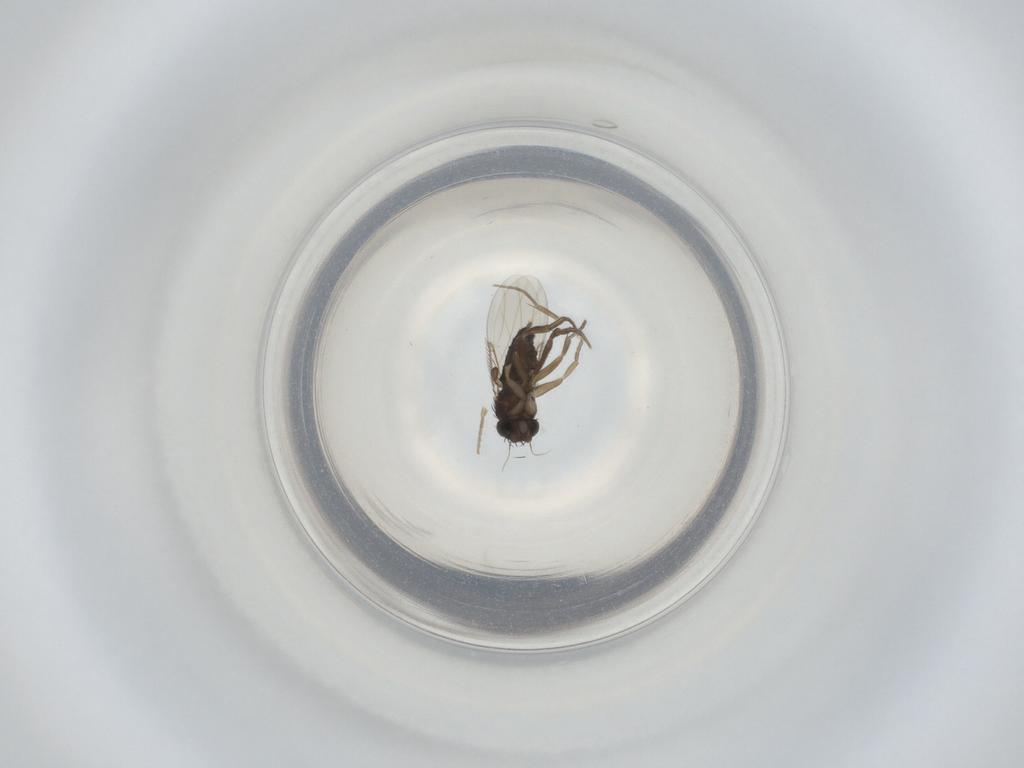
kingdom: Animalia
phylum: Arthropoda
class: Insecta
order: Diptera
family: Phoridae
